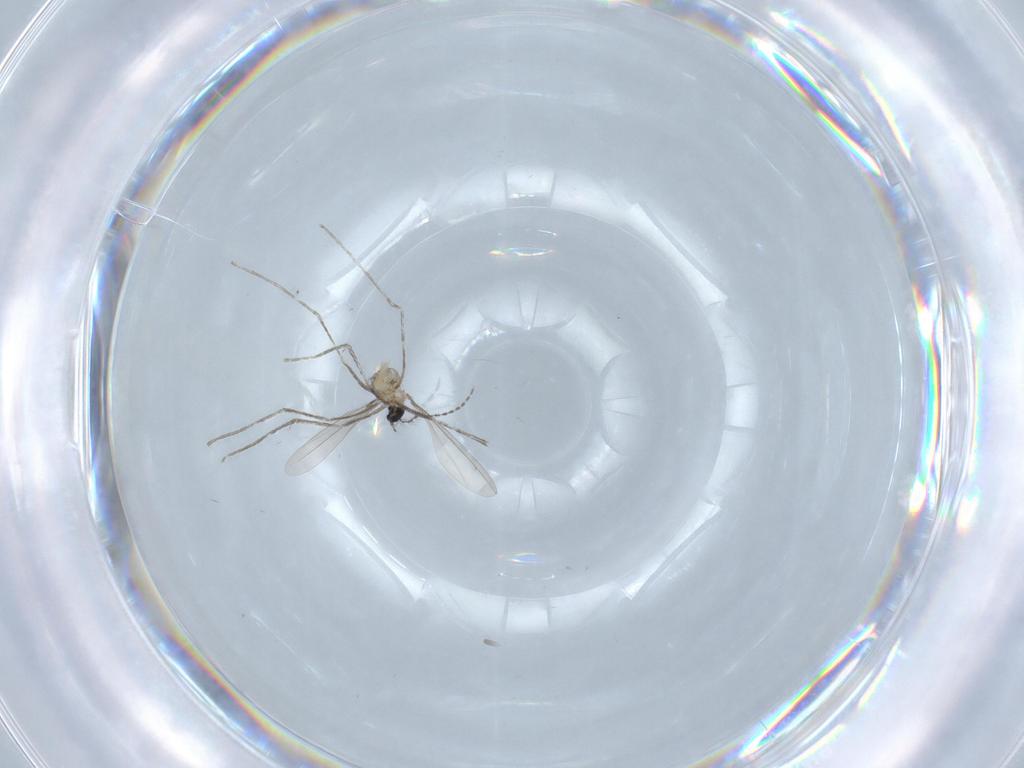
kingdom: Animalia
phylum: Arthropoda
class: Insecta
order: Diptera
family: Cecidomyiidae
